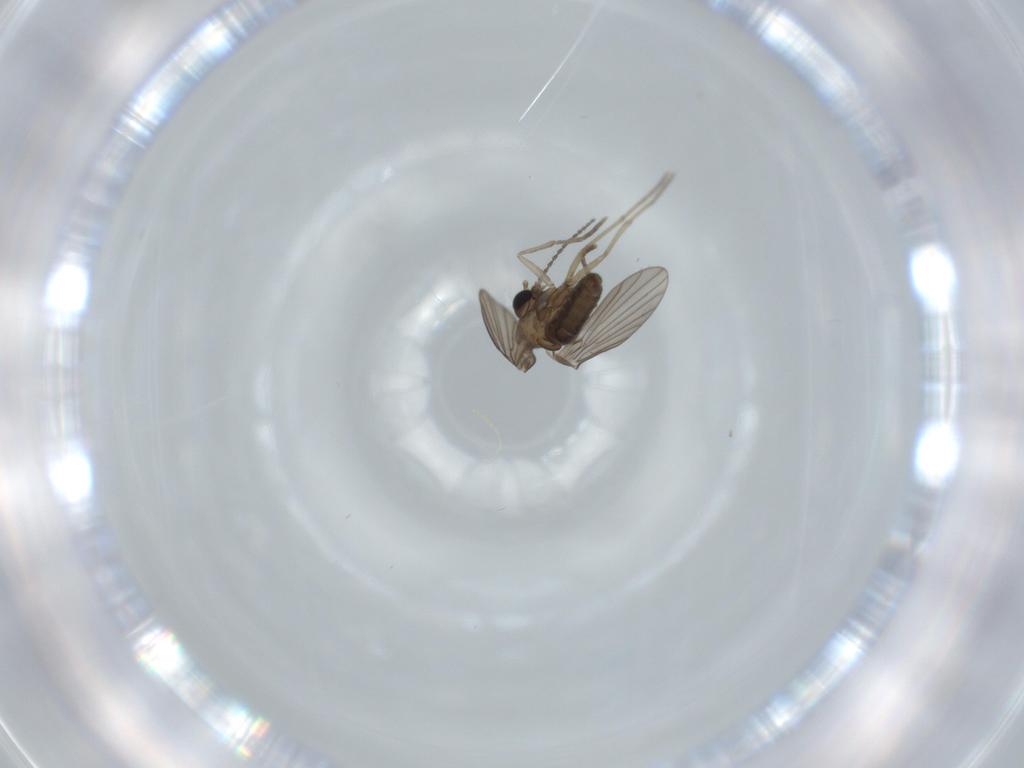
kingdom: Animalia
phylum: Arthropoda
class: Insecta
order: Diptera
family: Psychodidae
